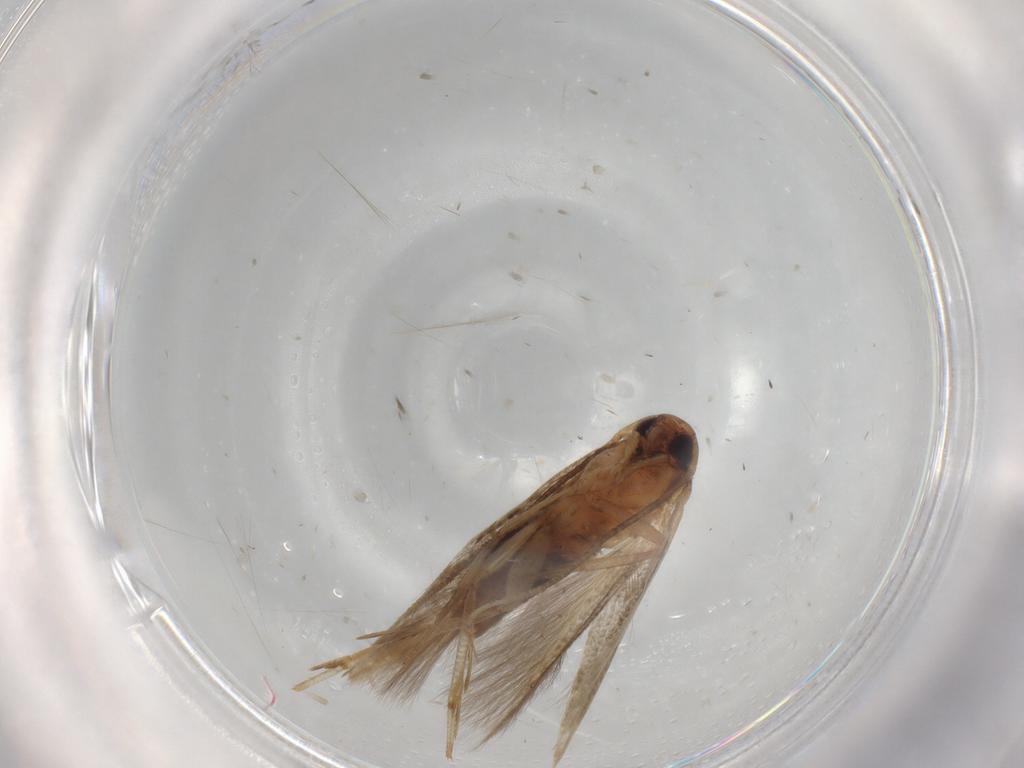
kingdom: Animalia
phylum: Arthropoda
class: Insecta
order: Lepidoptera
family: Cosmopterigidae
